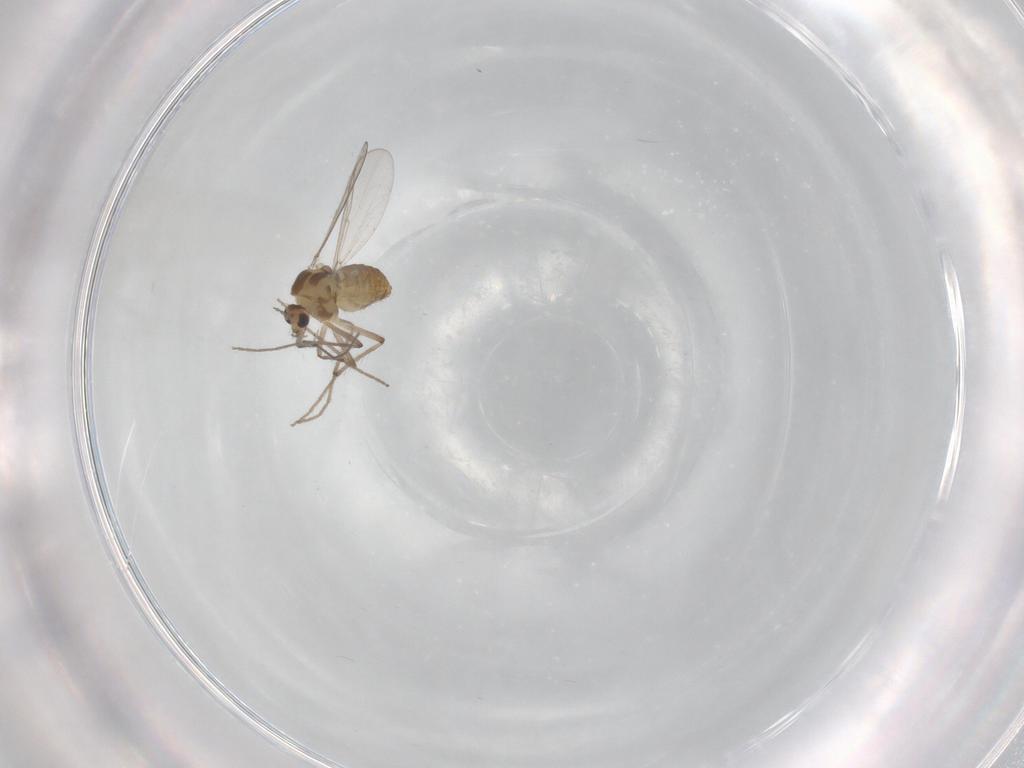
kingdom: Animalia
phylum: Arthropoda
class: Insecta
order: Diptera
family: Chironomidae
